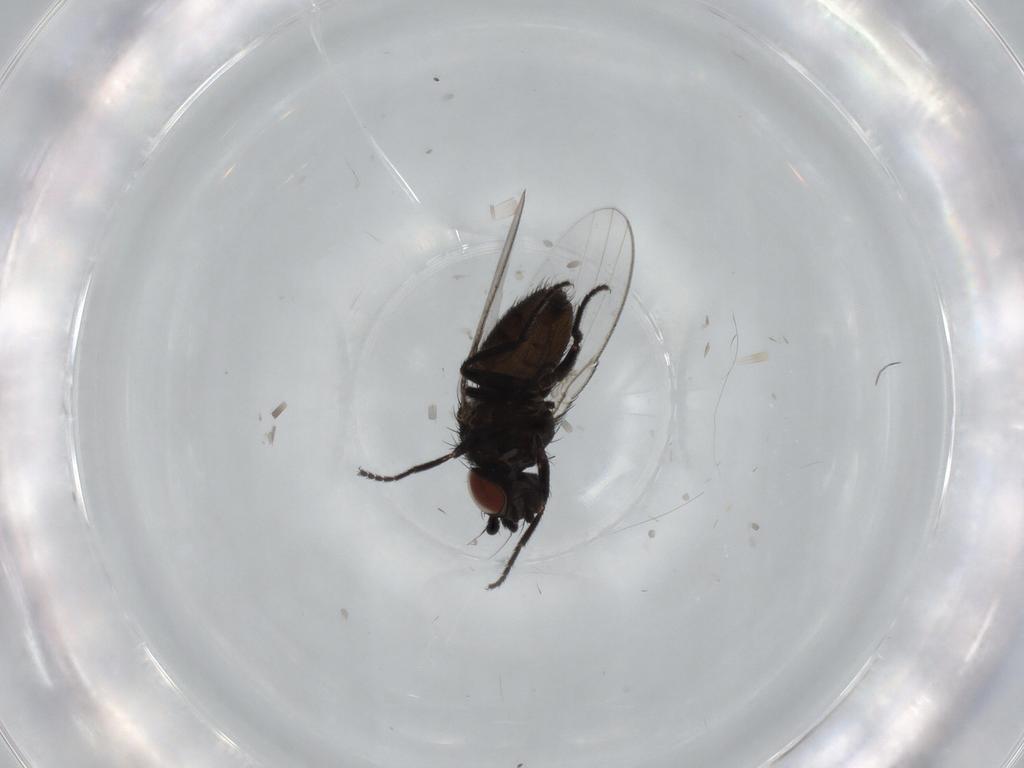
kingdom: Animalia
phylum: Arthropoda
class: Insecta
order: Diptera
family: Milichiidae
